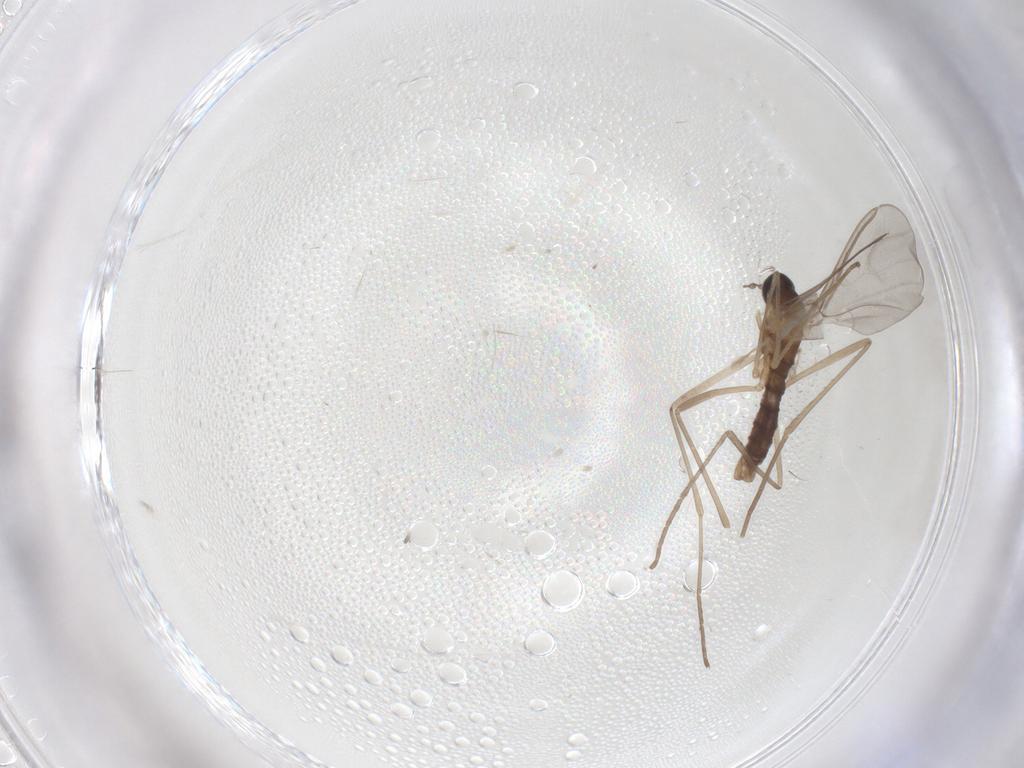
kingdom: Animalia
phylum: Arthropoda
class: Insecta
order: Diptera
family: Cecidomyiidae
